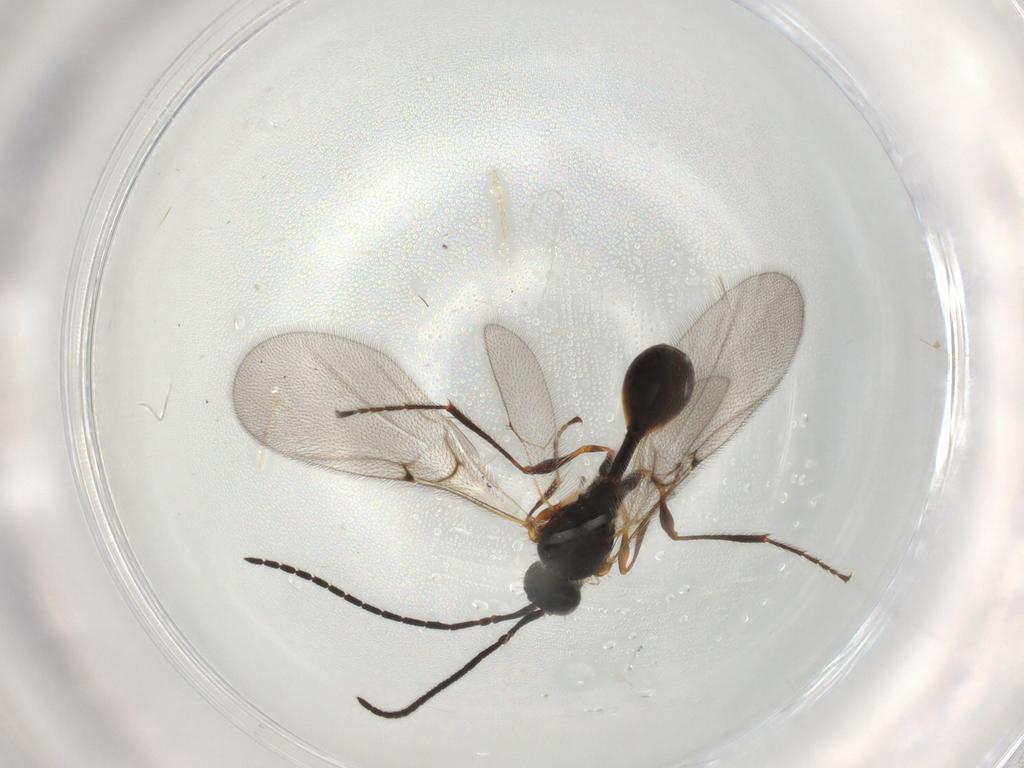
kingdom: Animalia
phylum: Arthropoda
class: Insecta
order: Hymenoptera
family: Diapriidae
